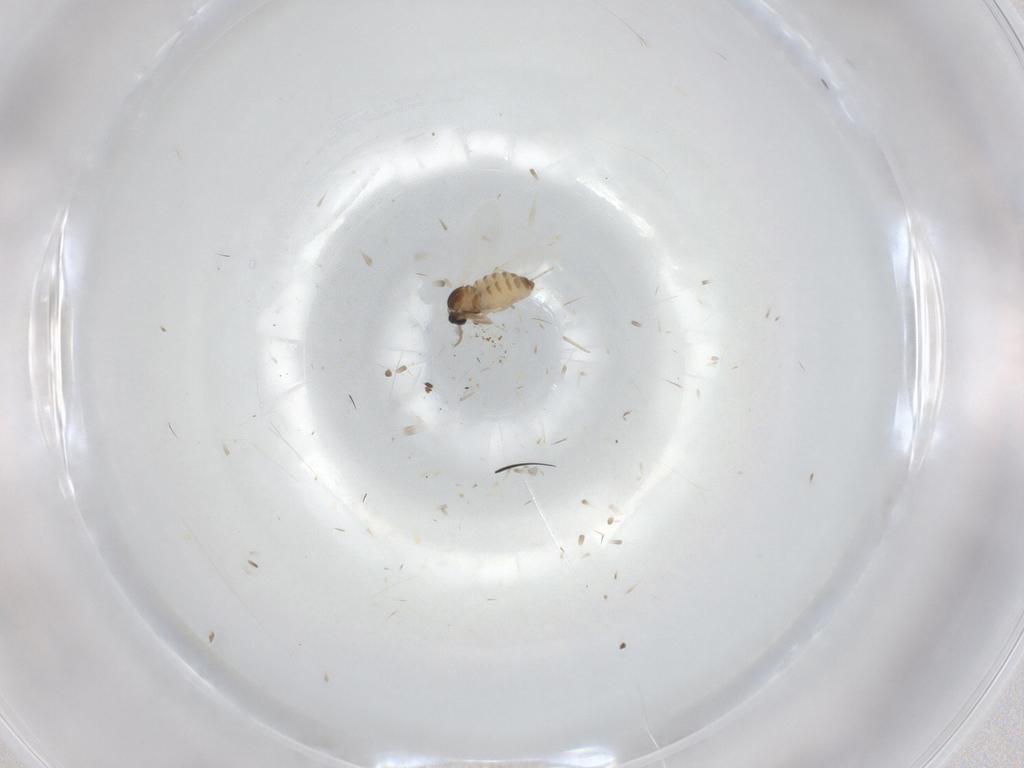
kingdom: Animalia
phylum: Arthropoda
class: Insecta
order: Diptera
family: Cecidomyiidae
